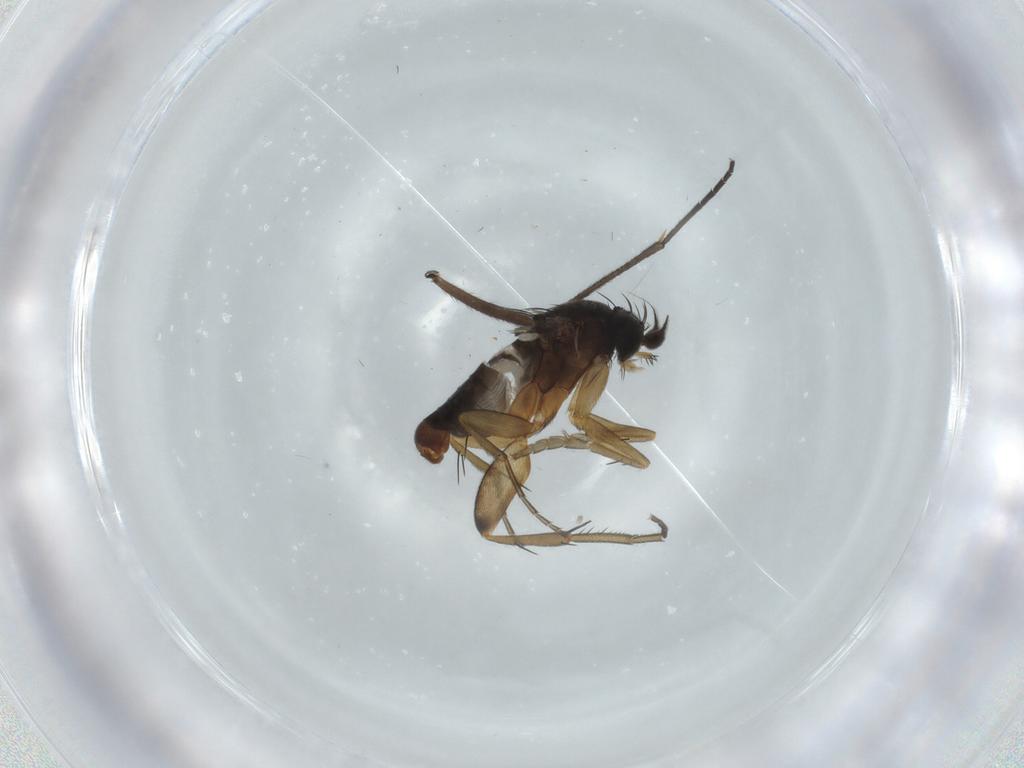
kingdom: Animalia
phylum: Arthropoda
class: Insecta
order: Diptera
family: Phoridae
